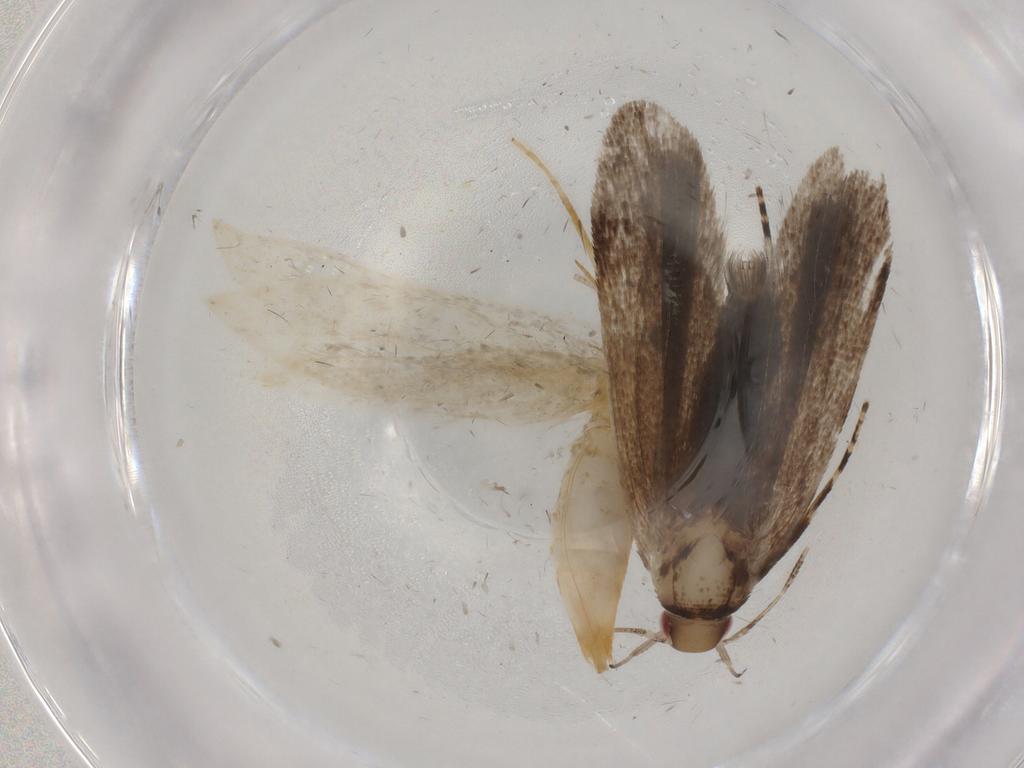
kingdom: Animalia
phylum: Arthropoda
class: Insecta
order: Lepidoptera
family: Tineidae
